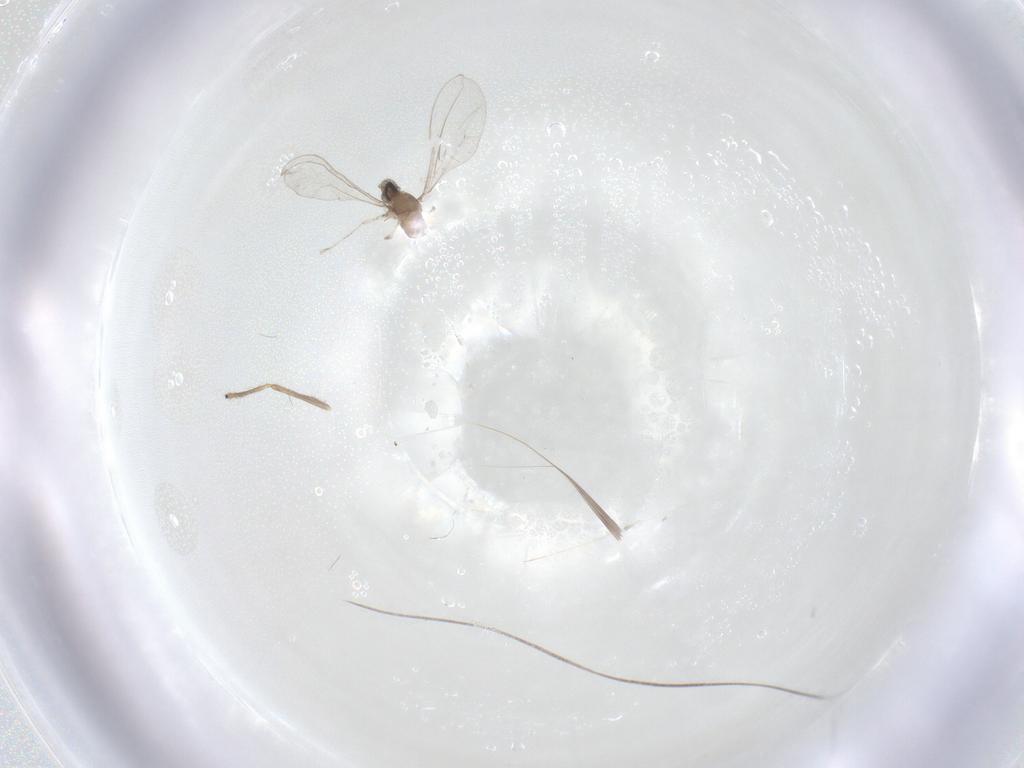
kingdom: Animalia
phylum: Arthropoda
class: Insecta
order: Diptera
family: Cecidomyiidae
